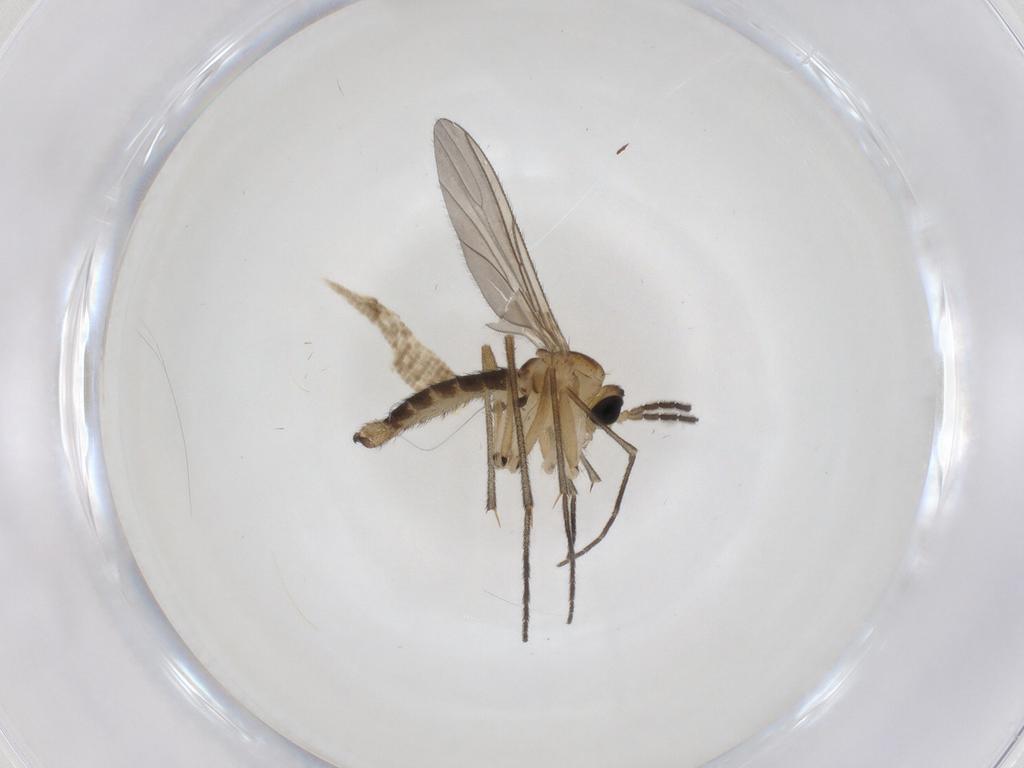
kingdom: Animalia
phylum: Arthropoda
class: Insecta
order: Diptera
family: Sciaridae
